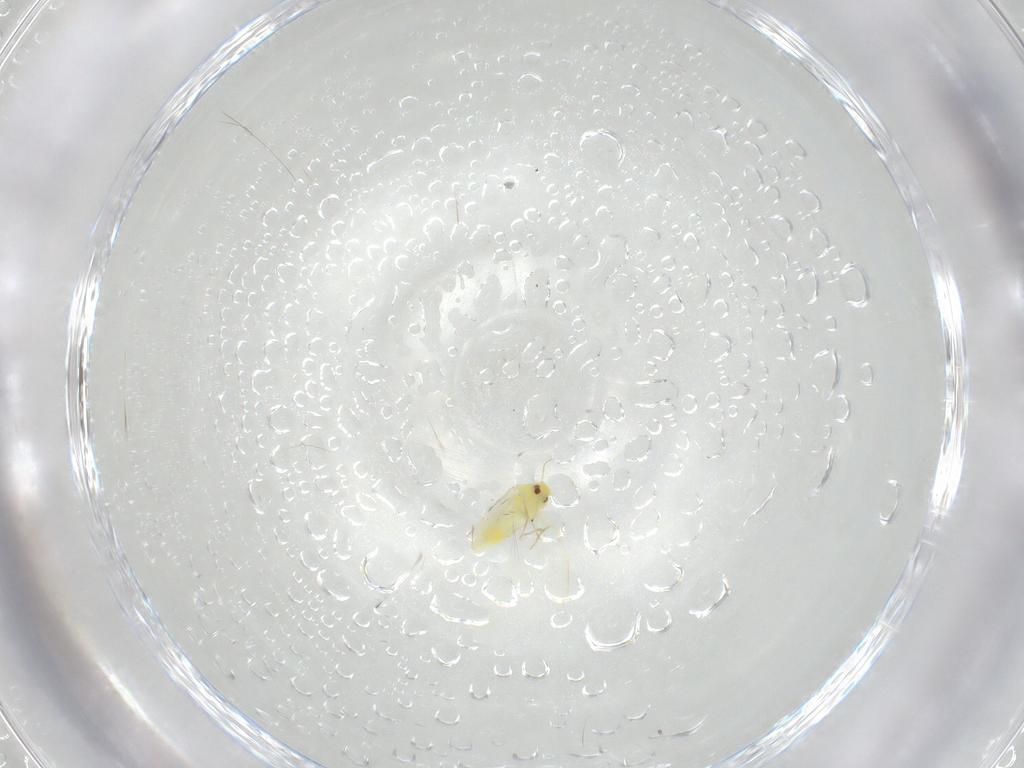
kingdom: Animalia
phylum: Arthropoda
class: Insecta
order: Hemiptera
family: Aleyrodidae
